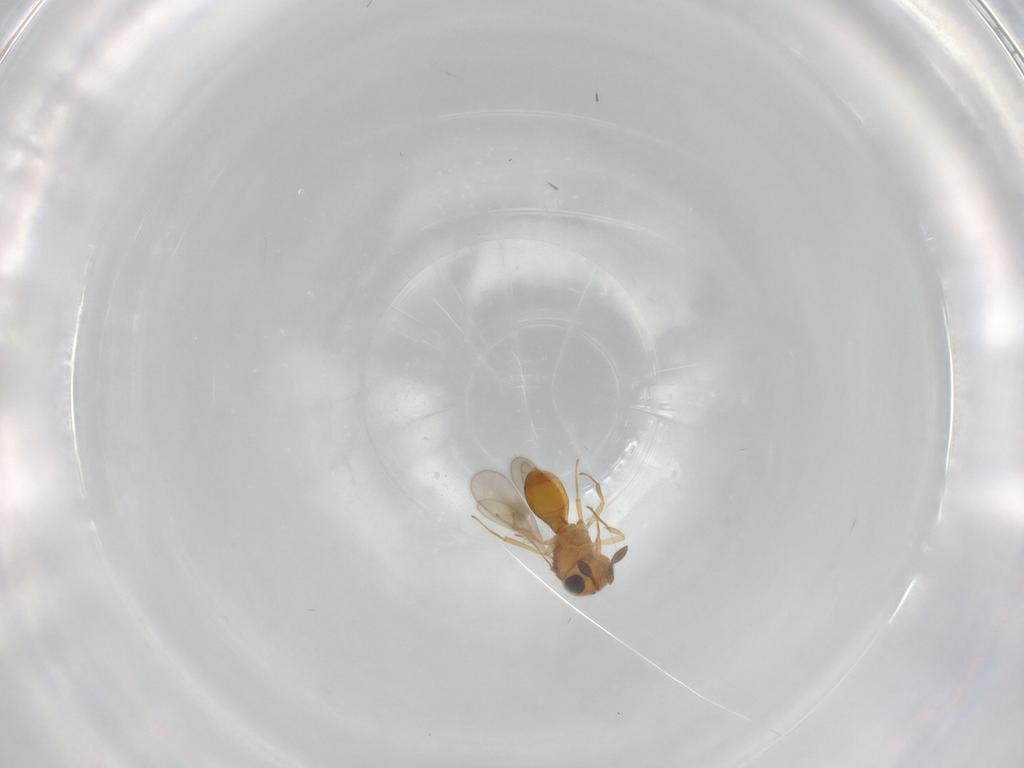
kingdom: Animalia
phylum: Arthropoda
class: Insecta
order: Hymenoptera
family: Scelionidae
